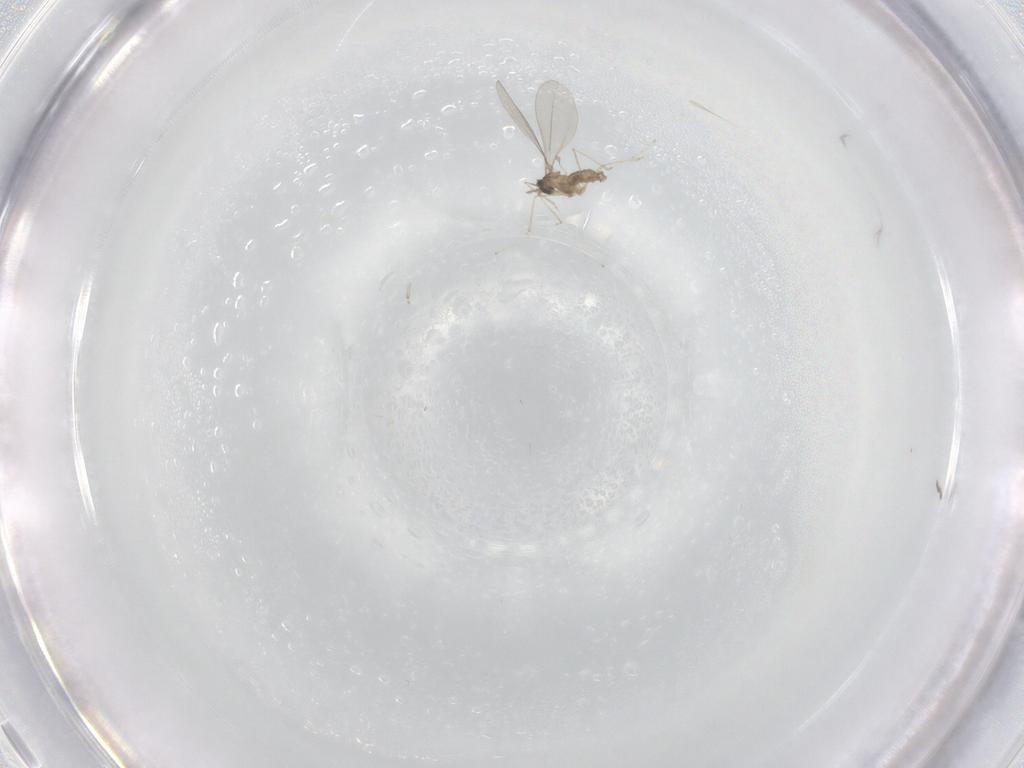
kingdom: Animalia
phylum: Arthropoda
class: Insecta
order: Diptera
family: Cecidomyiidae
